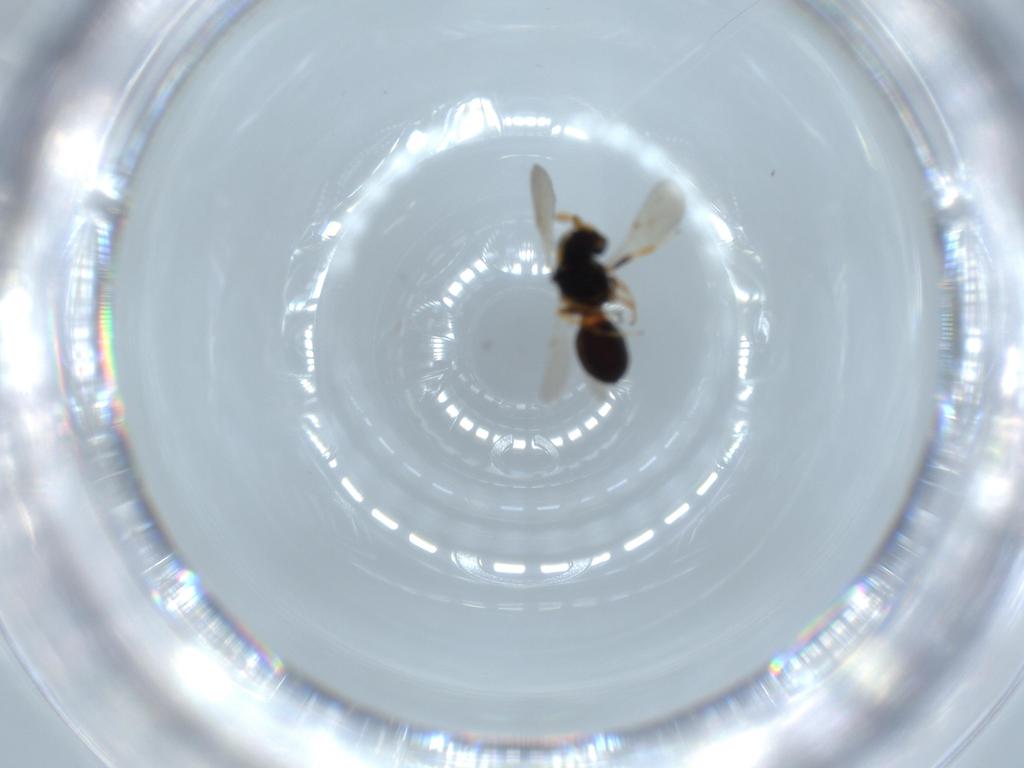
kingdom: Animalia
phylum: Arthropoda
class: Insecta
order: Hymenoptera
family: Scelionidae
